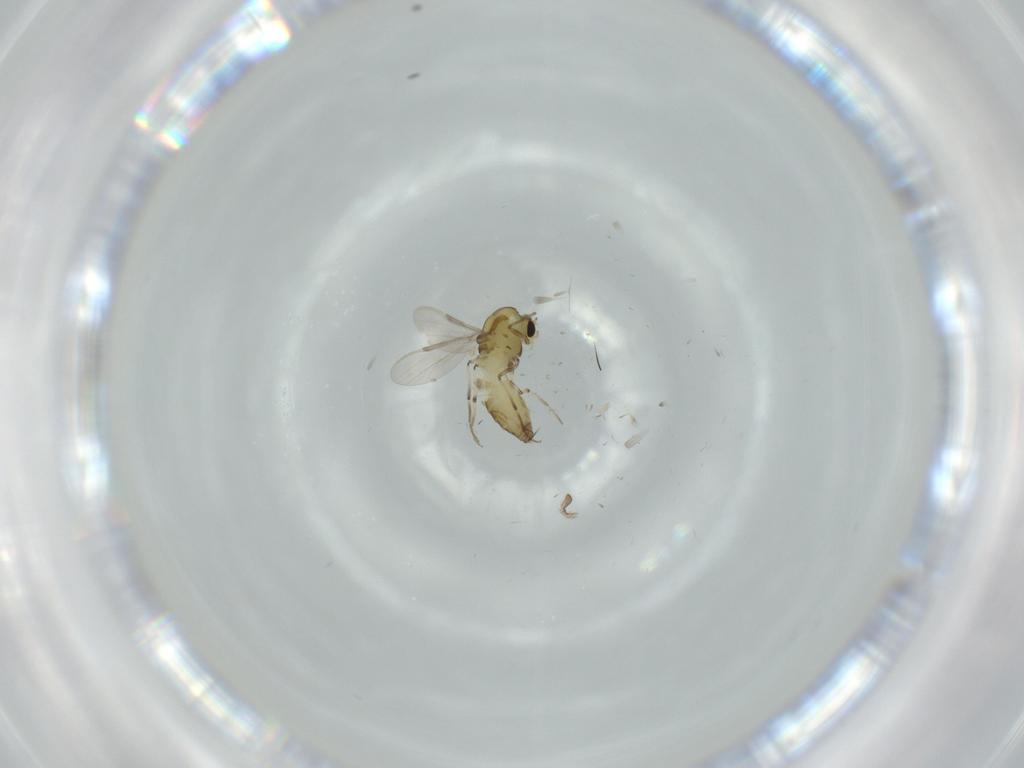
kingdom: Animalia
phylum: Arthropoda
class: Insecta
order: Diptera
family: Cecidomyiidae
